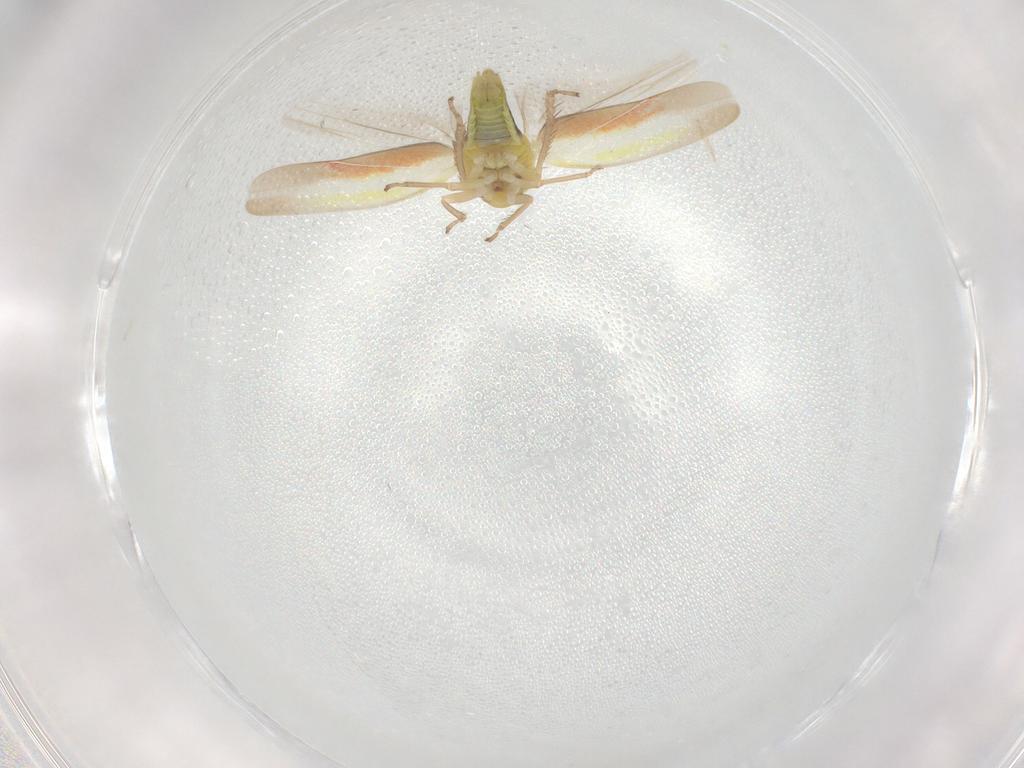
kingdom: Animalia
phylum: Arthropoda
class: Insecta
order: Hemiptera
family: Cicadellidae
